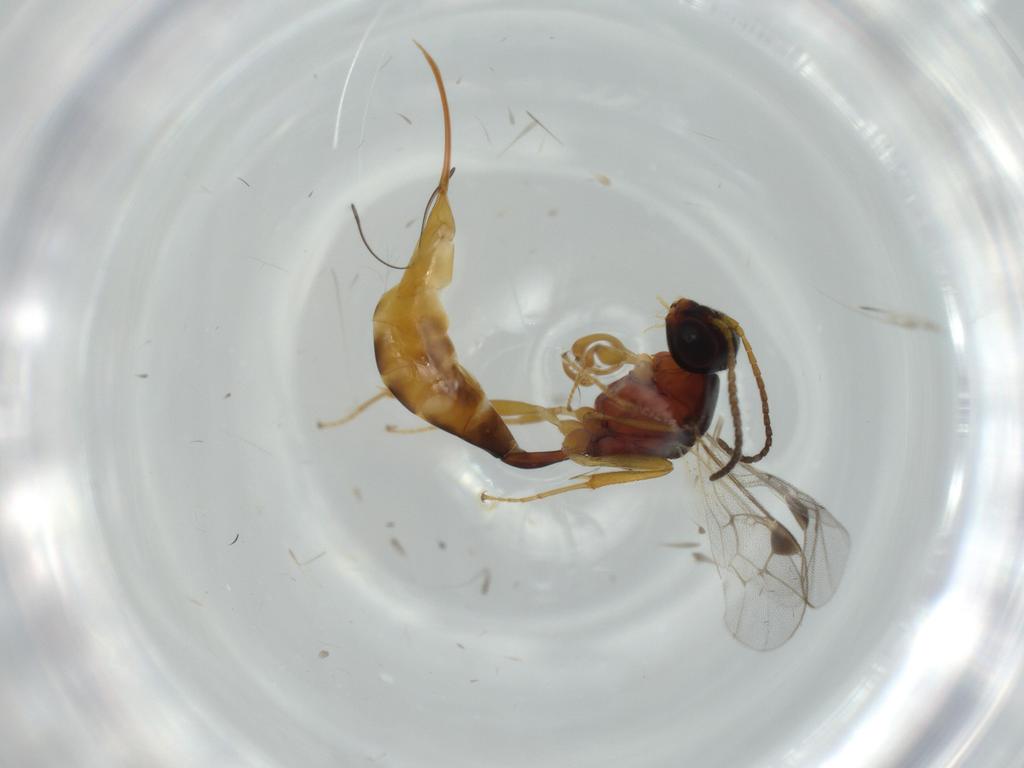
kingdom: Animalia
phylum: Arthropoda
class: Insecta
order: Hymenoptera
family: Scelionidae
